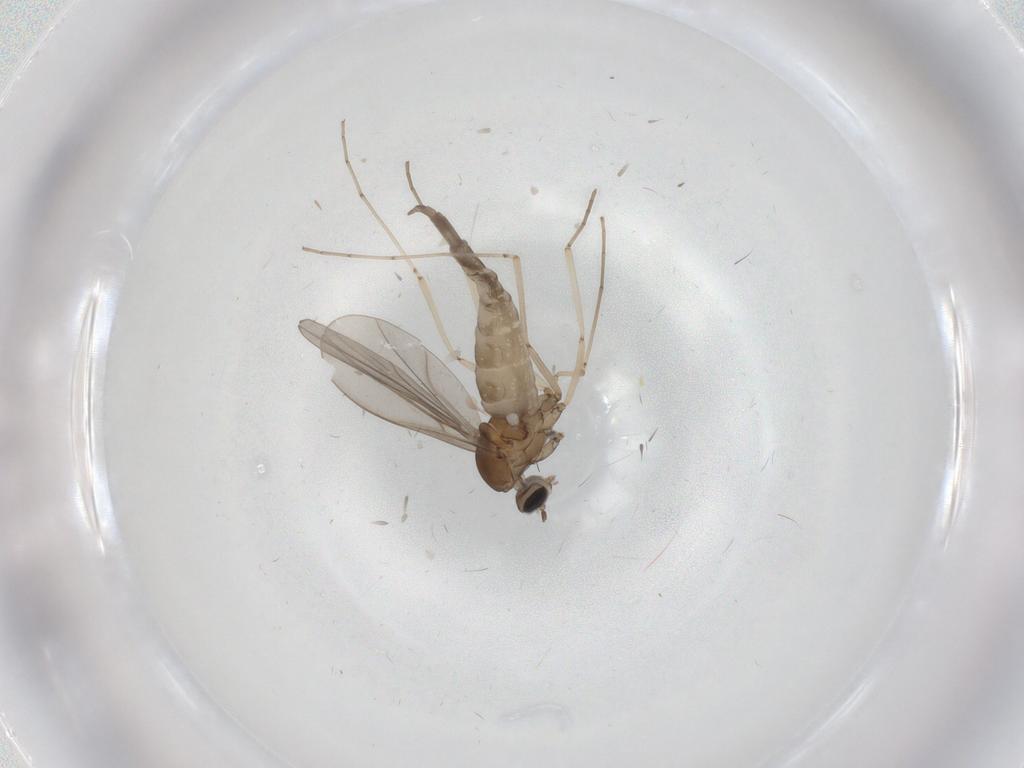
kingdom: Animalia
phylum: Arthropoda
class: Insecta
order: Diptera
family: Cecidomyiidae
